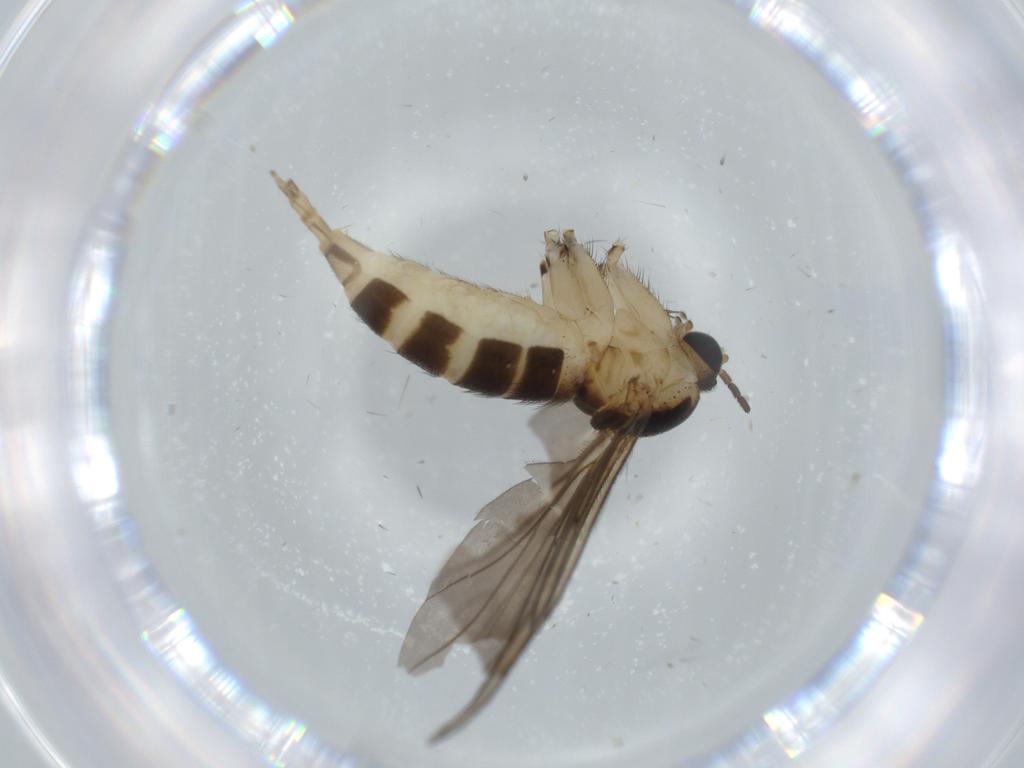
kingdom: Animalia
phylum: Arthropoda
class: Insecta
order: Diptera
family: Sciaridae
